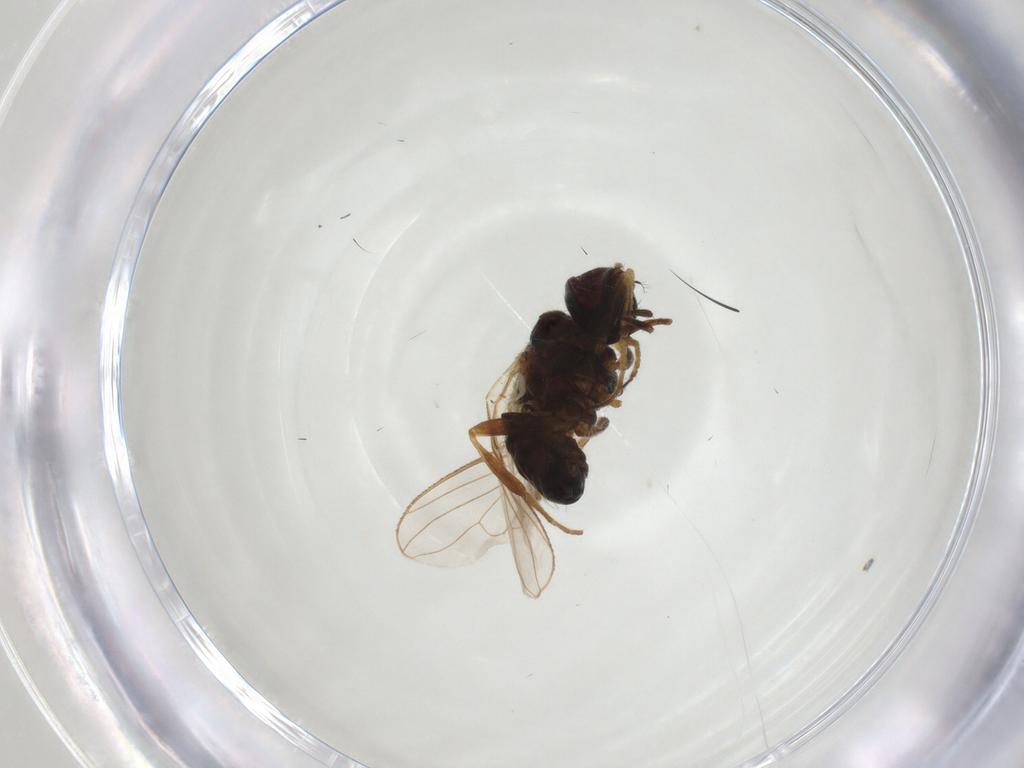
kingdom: Animalia
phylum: Arthropoda
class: Insecta
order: Diptera
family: Muscidae
